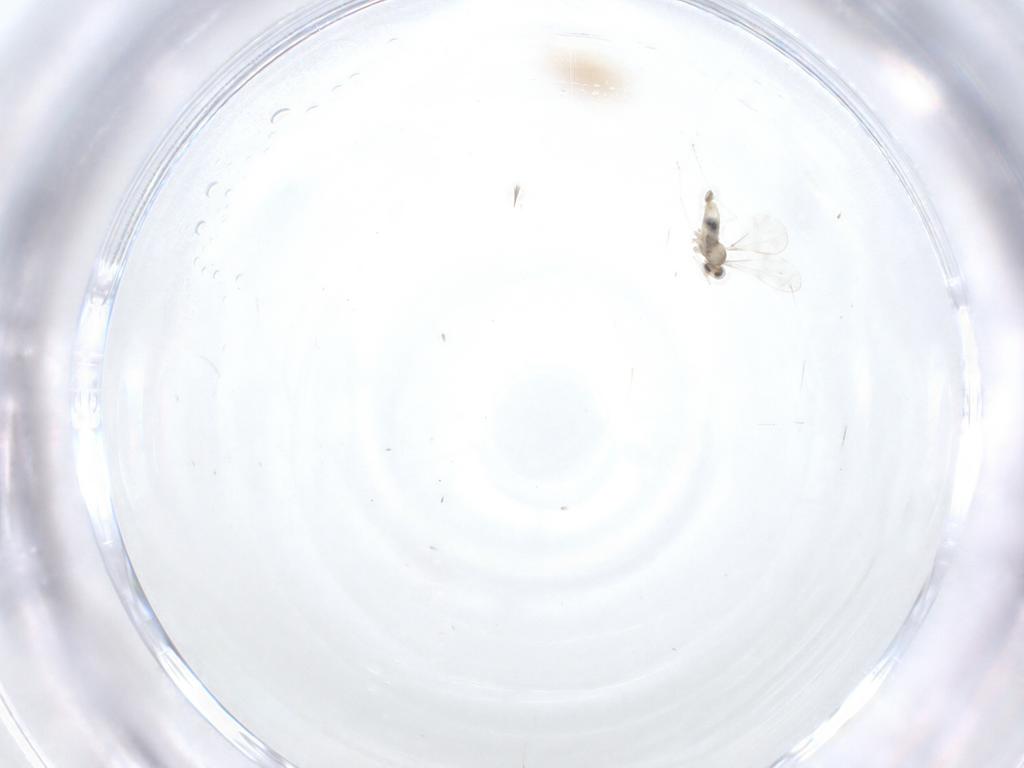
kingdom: Animalia
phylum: Arthropoda
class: Insecta
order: Diptera
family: Cecidomyiidae
